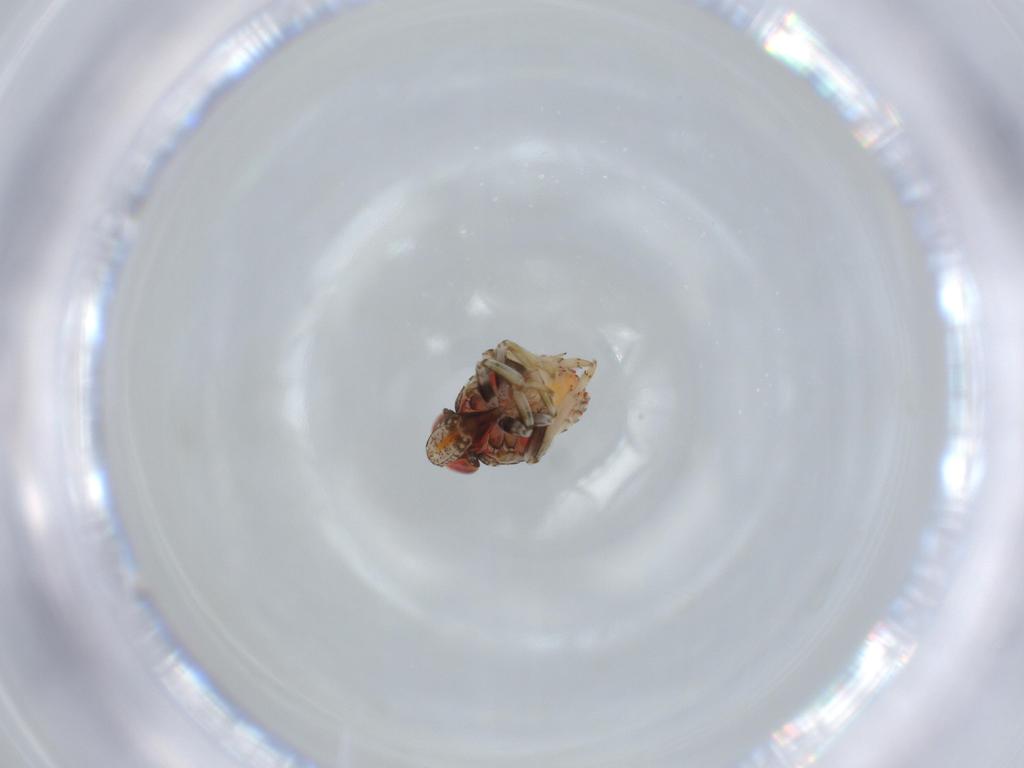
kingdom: Animalia
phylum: Arthropoda
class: Insecta
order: Hemiptera
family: Issidae
